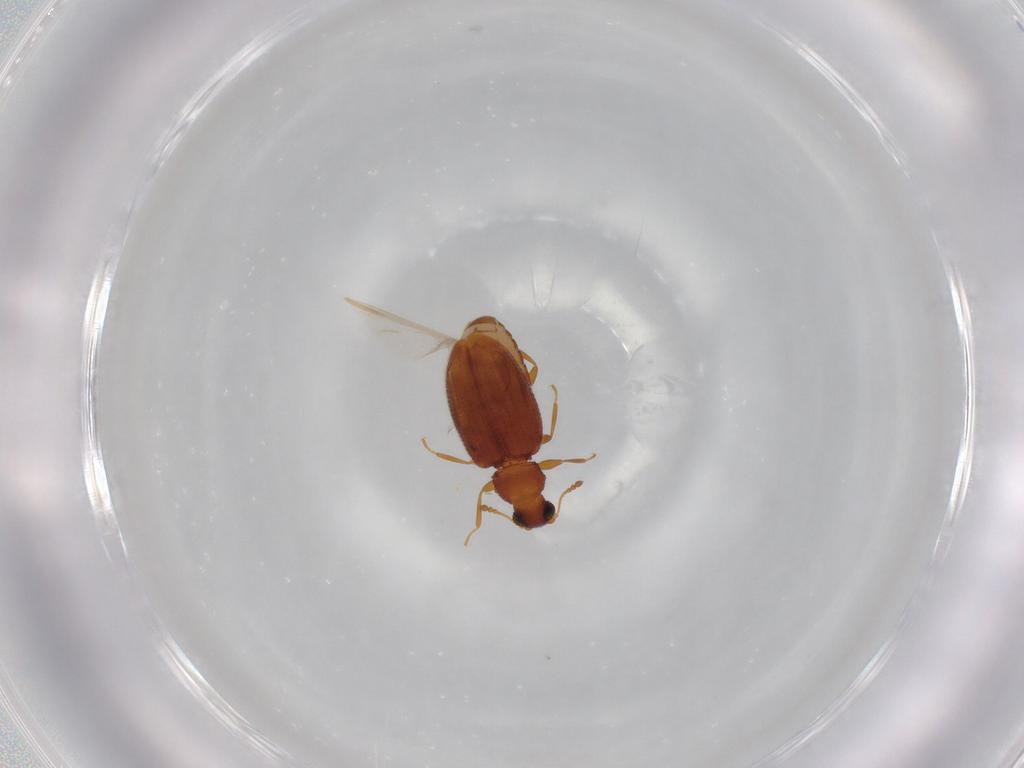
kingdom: Animalia
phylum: Arthropoda
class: Insecta
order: Coleoptera
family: Latridiidae
